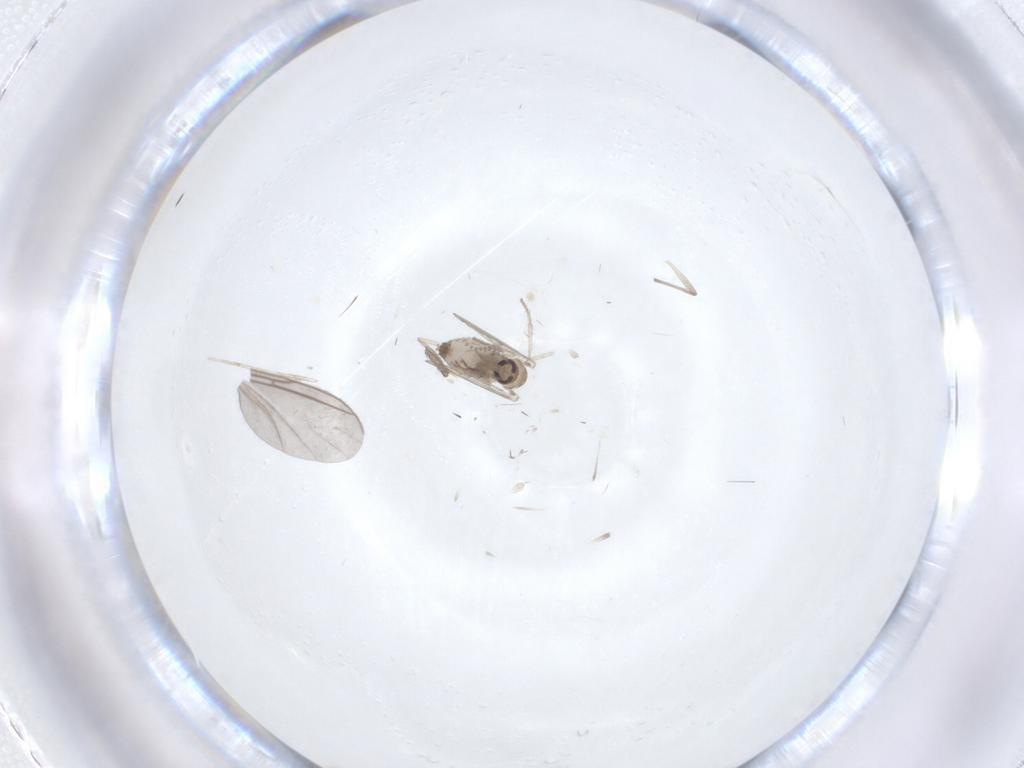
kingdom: Animalia
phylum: Arthropoda
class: Insecta
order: Diptera
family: Psychodidae
